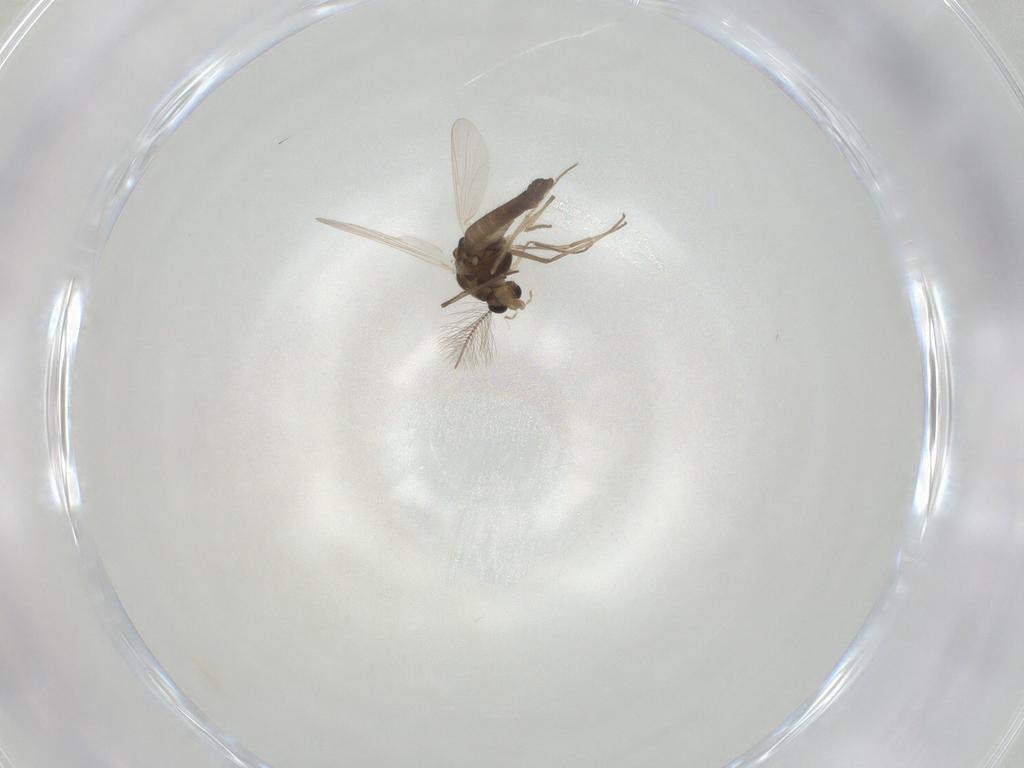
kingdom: Animalia
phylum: Arthropoda
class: Insecta
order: Diptera
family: Chironomidae
